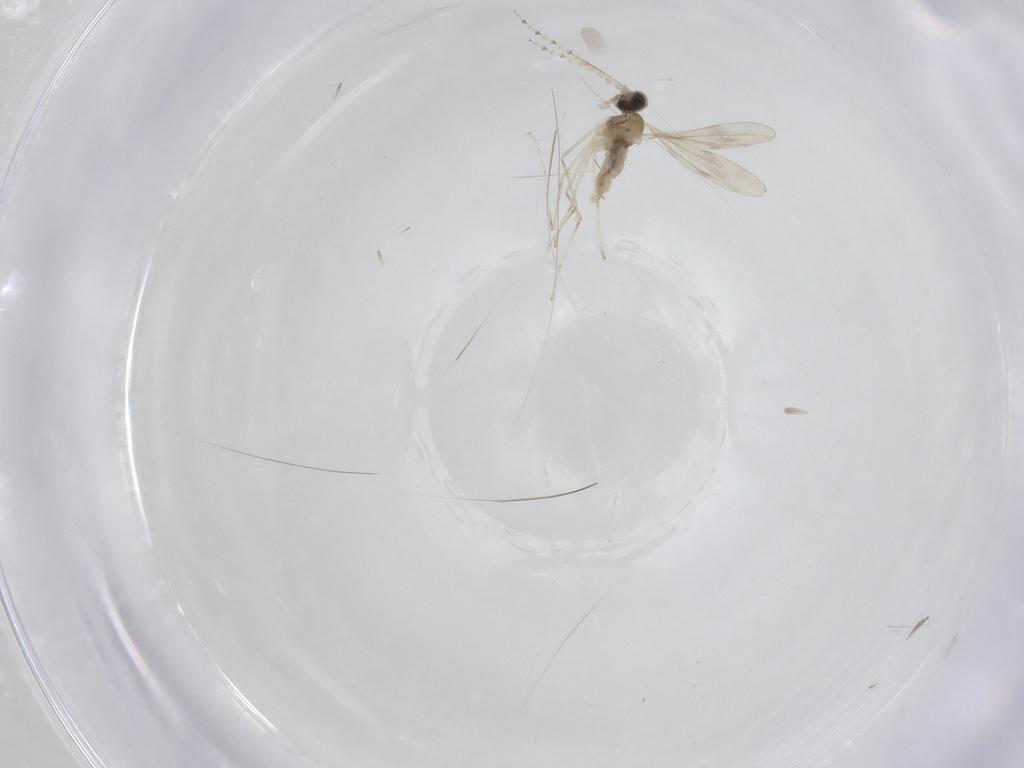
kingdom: Animalia
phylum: Arthropoda
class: Insecta
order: Diptera
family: Cecidomyiidae
